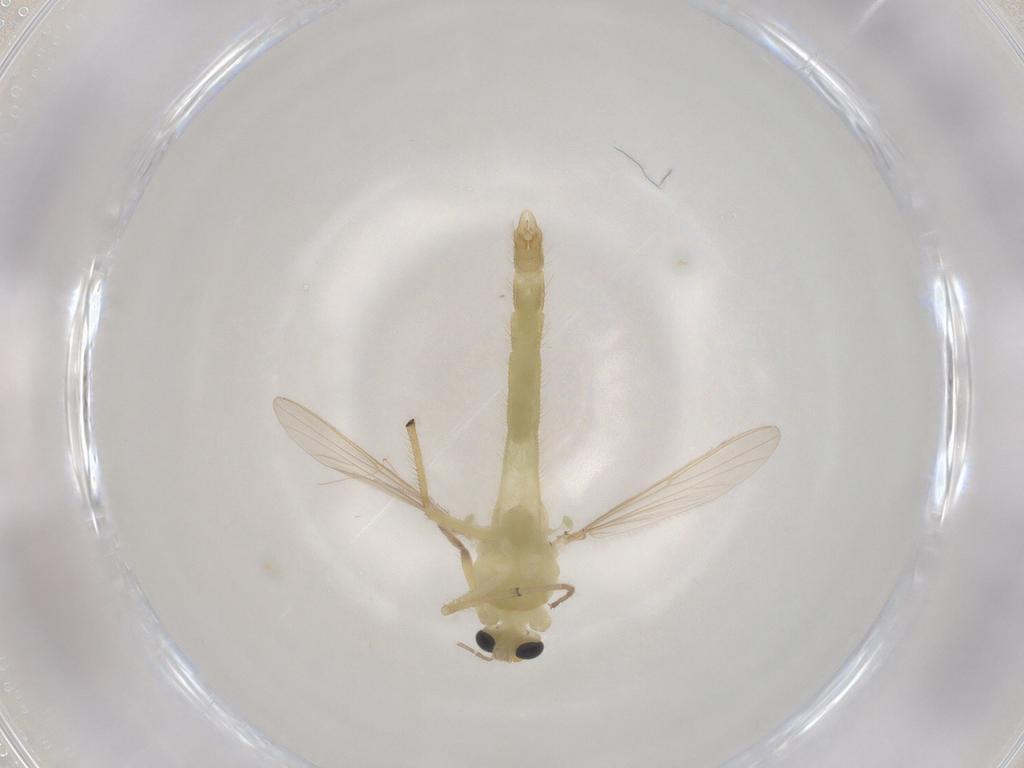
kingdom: Animalia
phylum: Arthropoda
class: Insecta
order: Diptera
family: Chironomidae
